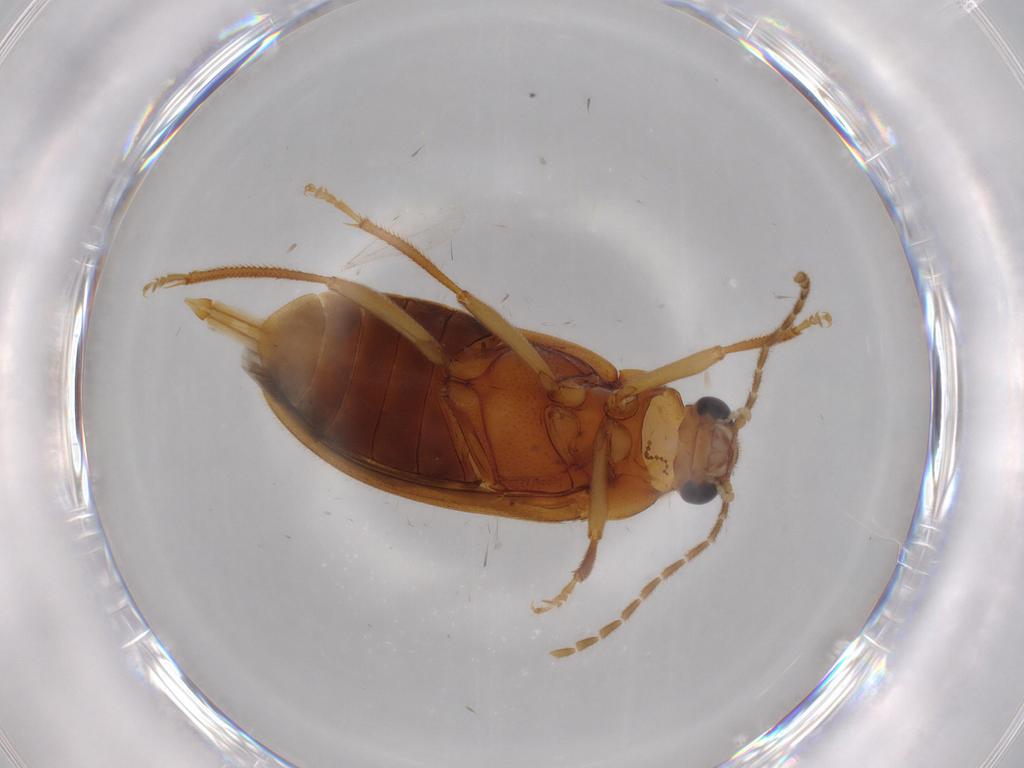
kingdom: Animalia
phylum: Arthropoda
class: Insecta
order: Coleoptera
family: Ptilodactylidae
